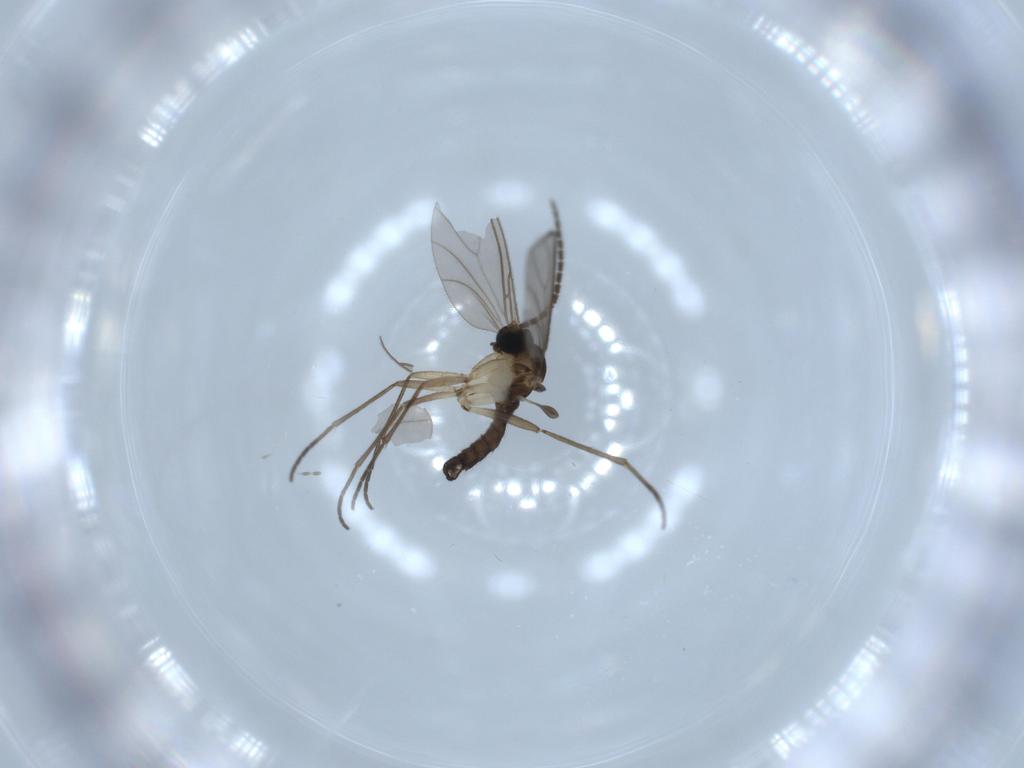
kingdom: Animalia
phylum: Arthropoda
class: Insecta
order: Diptera
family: Sciaridae
